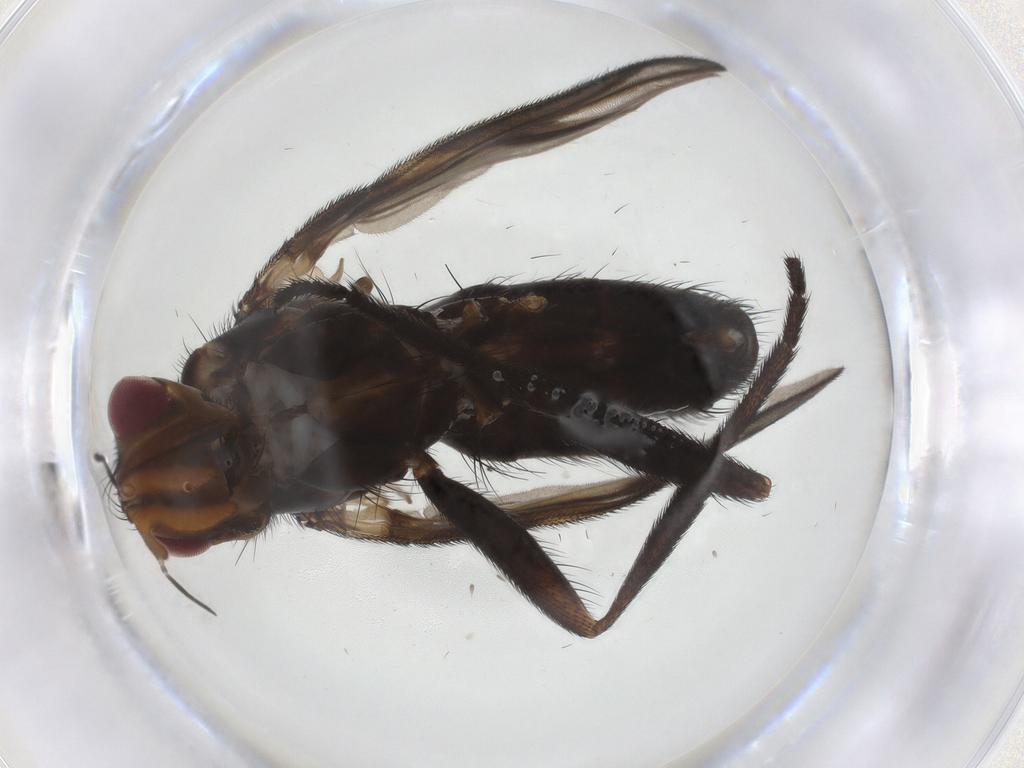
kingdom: Animalia
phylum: Arthropoda
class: Insecta
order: Diptera
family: Calliphoridae
